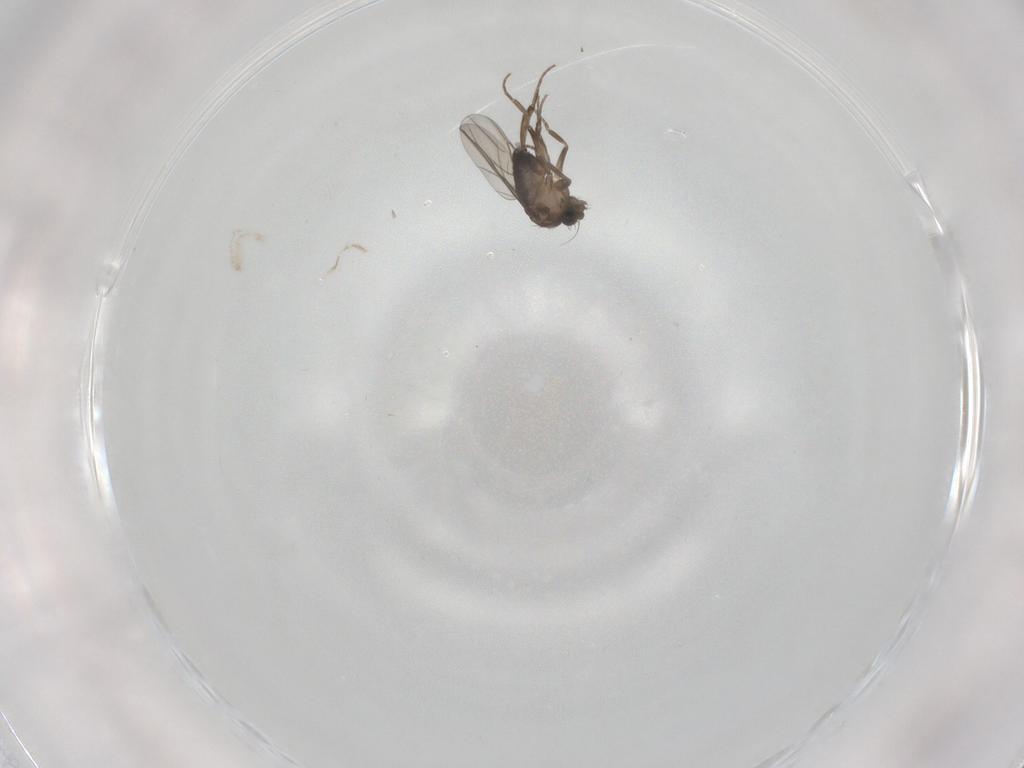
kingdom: Animalia
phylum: Arthropoda
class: Insecta
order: Diptera
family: Phoridae
